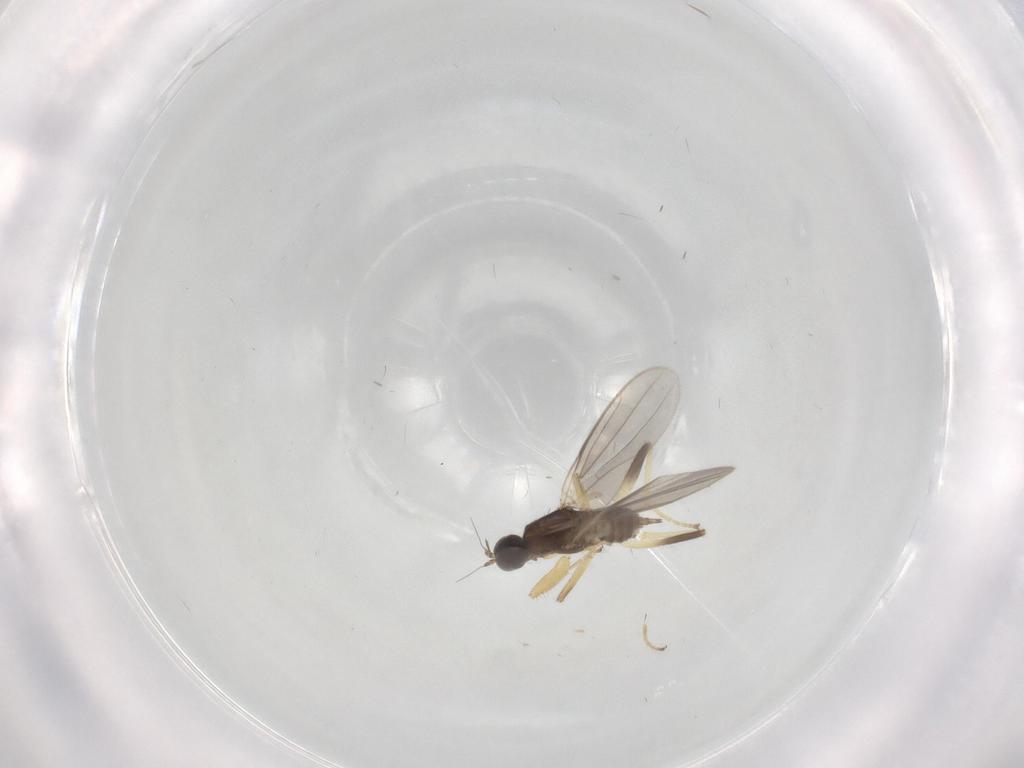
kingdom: Animalia
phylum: Arthropoda
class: Insecta
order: Diptera
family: Cecidomyiidae
